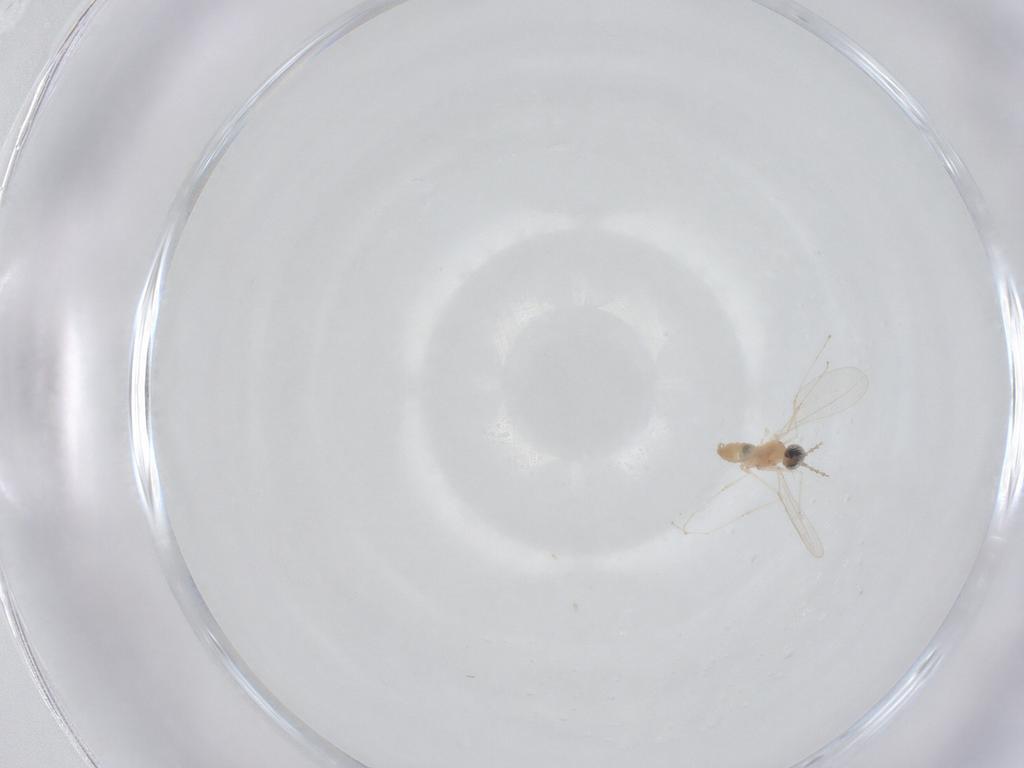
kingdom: Animalia
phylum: Arthropoda
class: Insecta
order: Diptera
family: Cecidomyiidae
